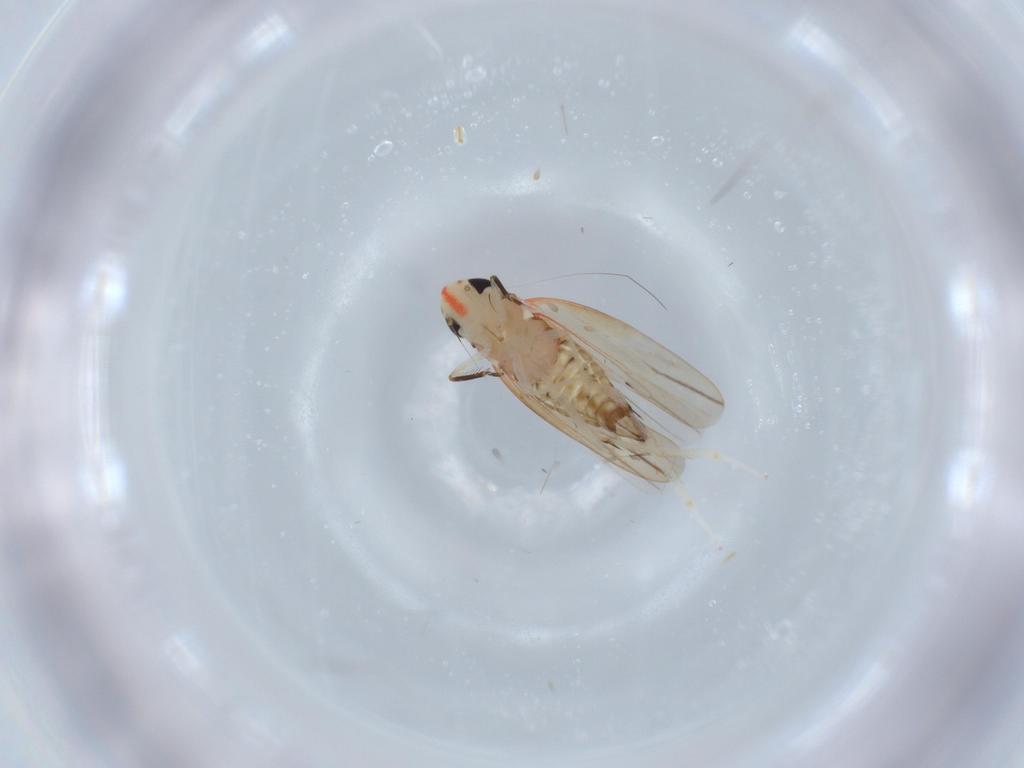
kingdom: Animalia
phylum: Arthropoda
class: Insecta
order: Hemiptera
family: Cicadellidae
